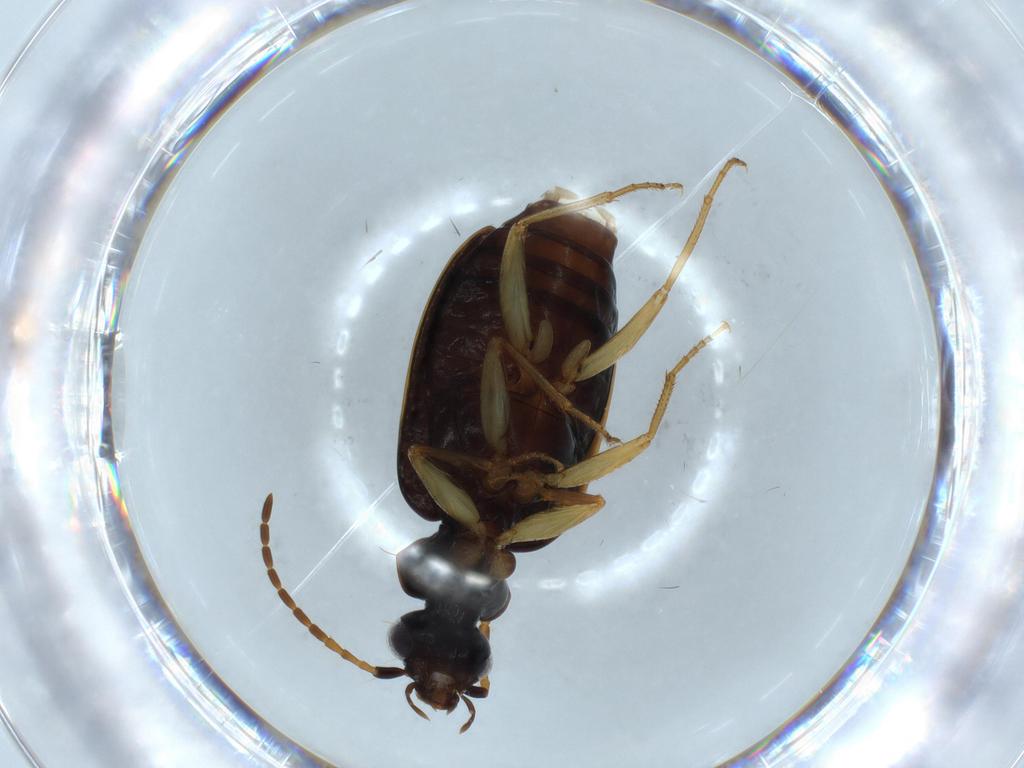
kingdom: Animalia
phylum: Arthropoda
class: Insecta
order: Coleoptera
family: Carabidae
